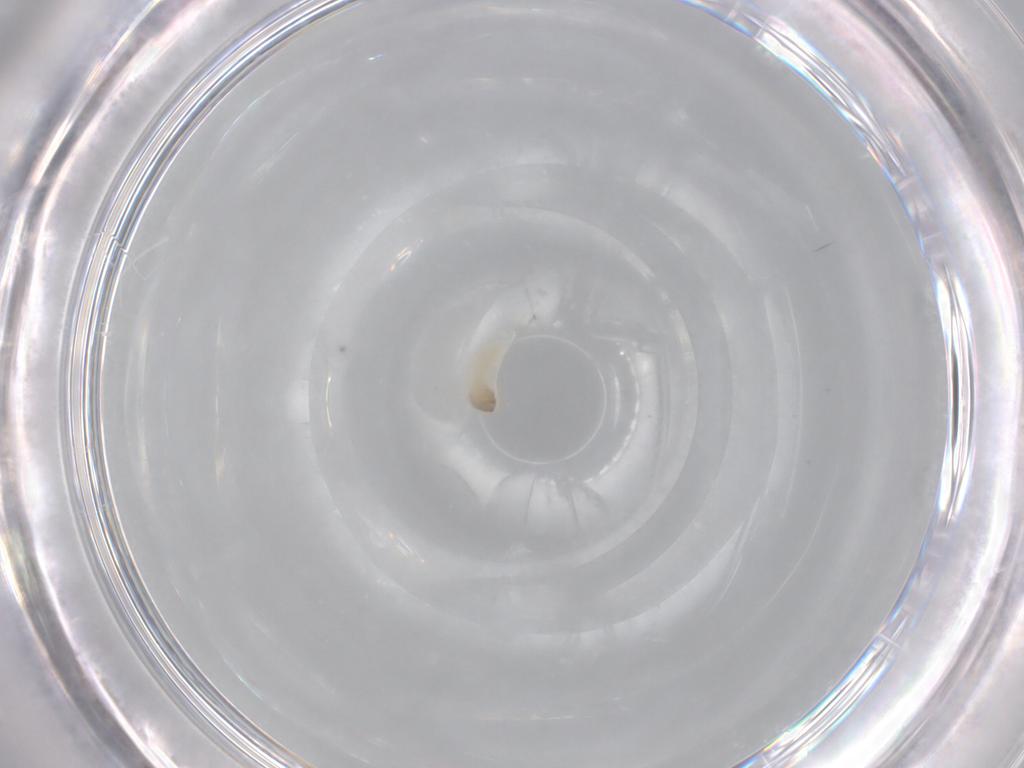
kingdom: Animalia
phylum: Arthropoda
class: Insecta
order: Diptera
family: Chironomidae
